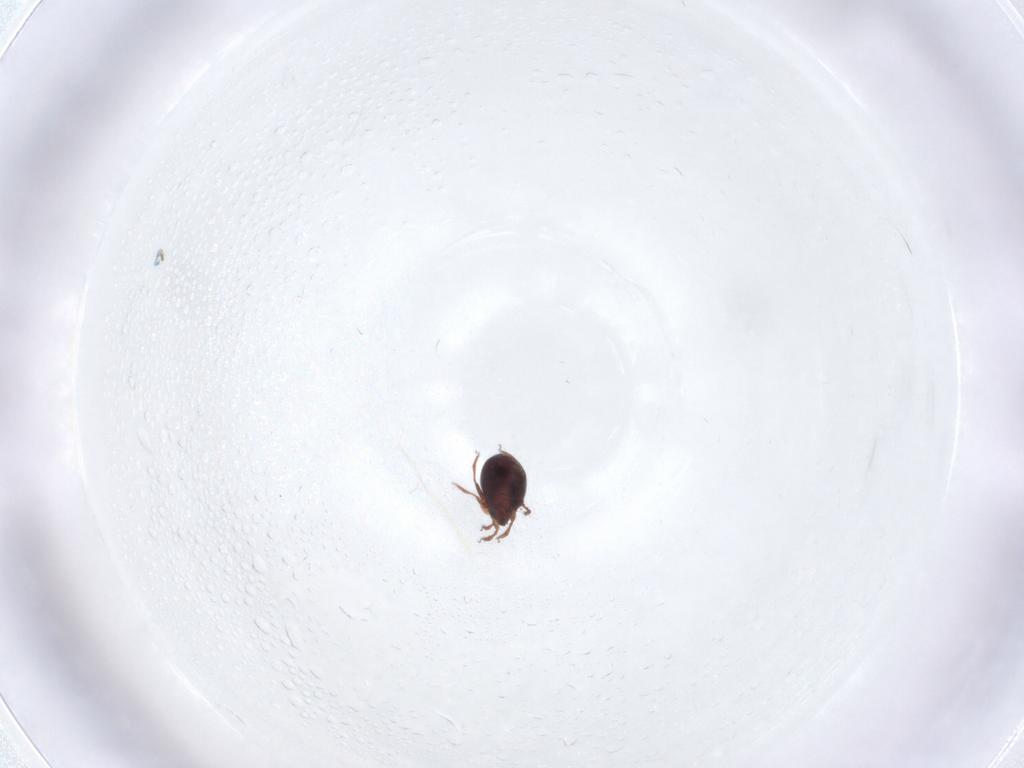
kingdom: Animalia
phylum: Arthropoda
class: Arachnida
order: Sarcoptiformes
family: Ceratozetidae
